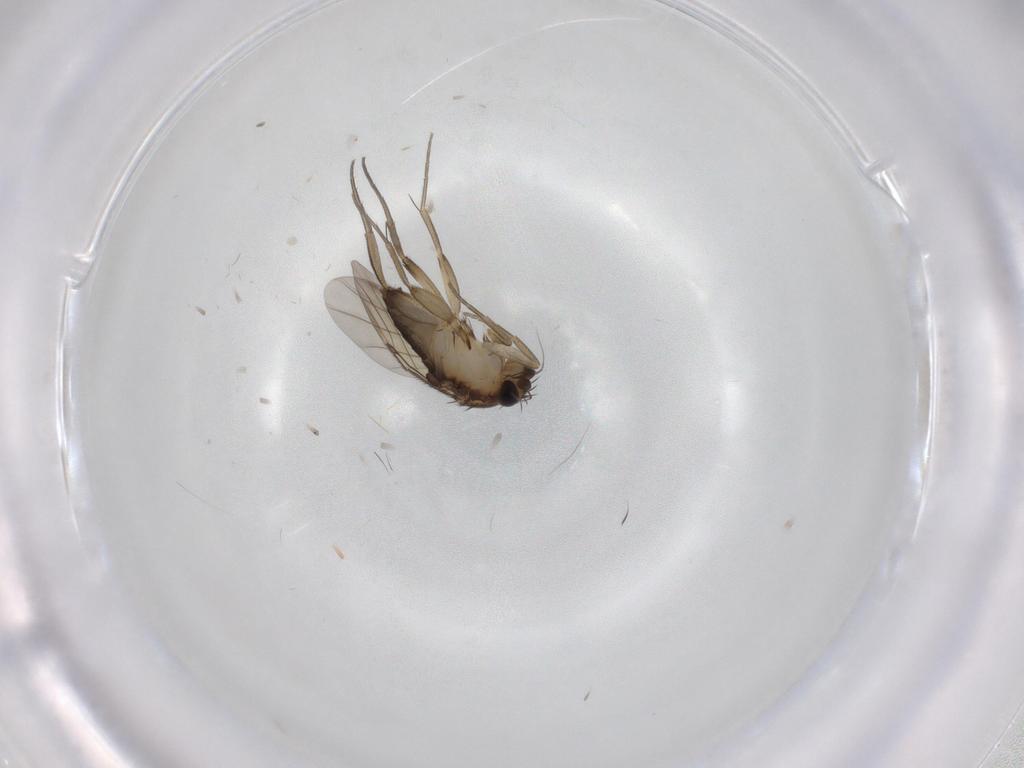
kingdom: Animalia
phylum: Arthropoda
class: Insecta
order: Diptera
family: Phoridae
